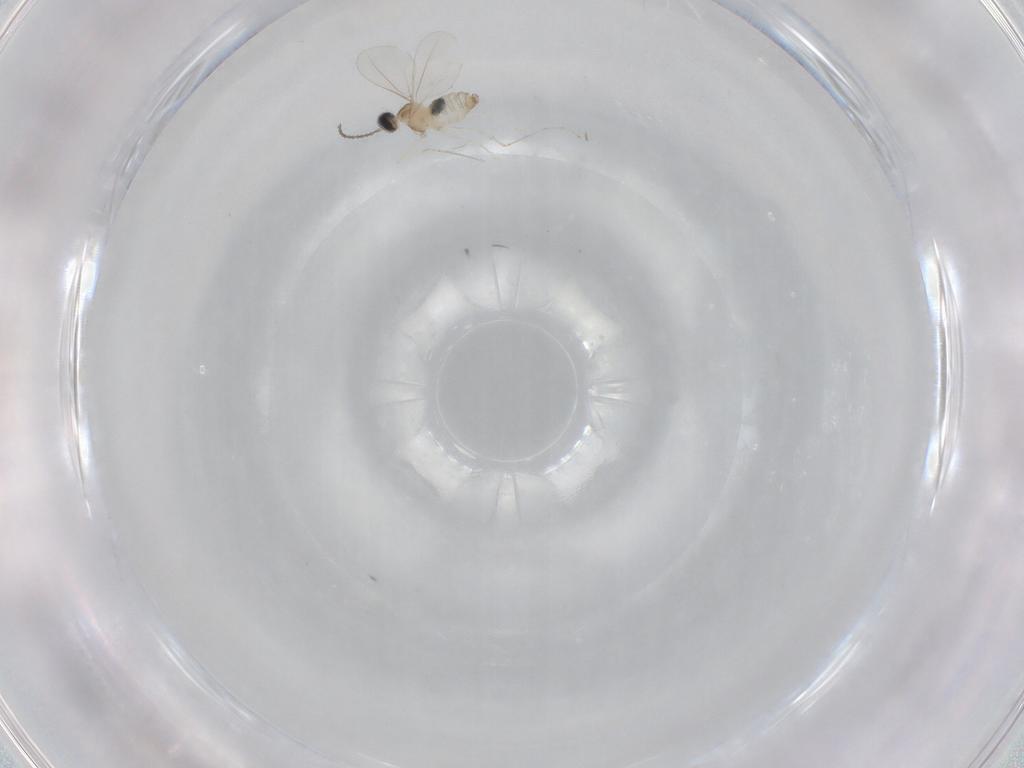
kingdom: Animalia
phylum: Arthropoda
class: Insecta
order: Diptera
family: Cecidomyiidae
